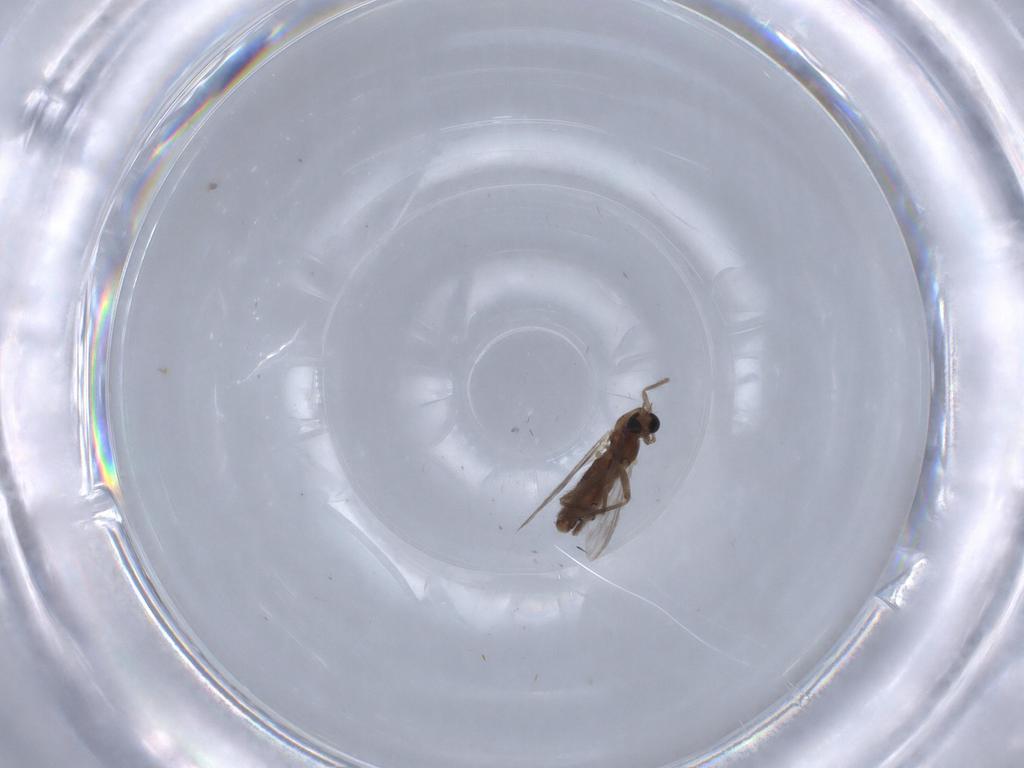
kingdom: Animalia
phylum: Arthropoda
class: Insecta
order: Diptera
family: Chironomidae
